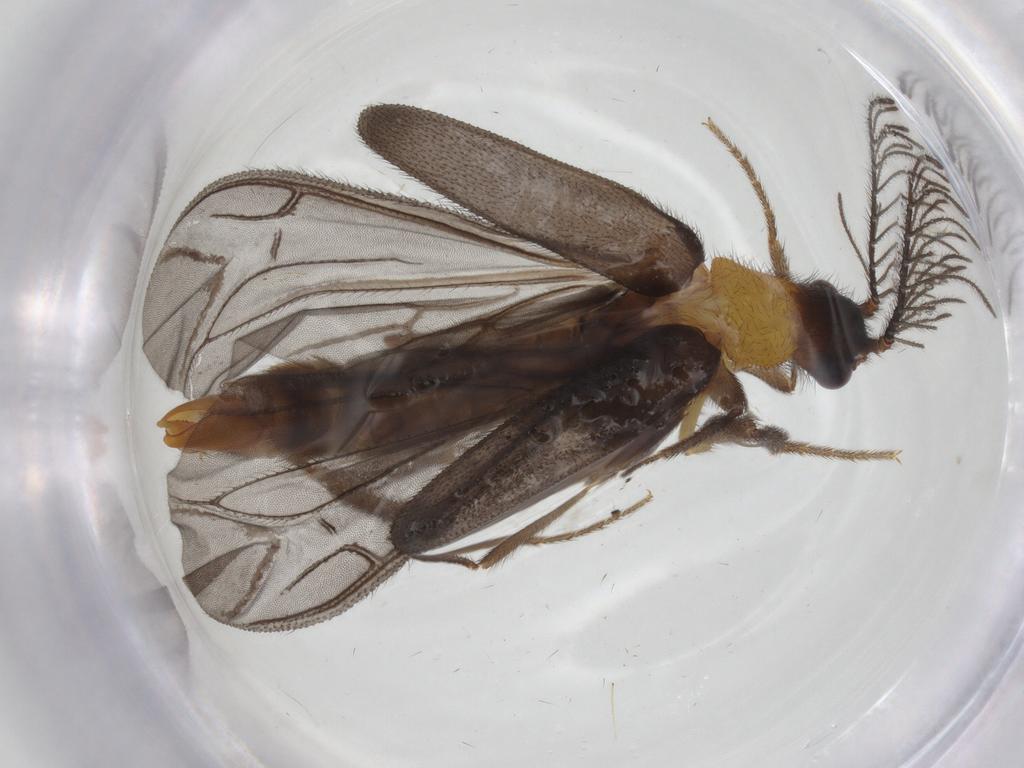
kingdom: Animalia
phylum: Arthropoda
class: Insecta
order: Coleoptera
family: Phengodidae
